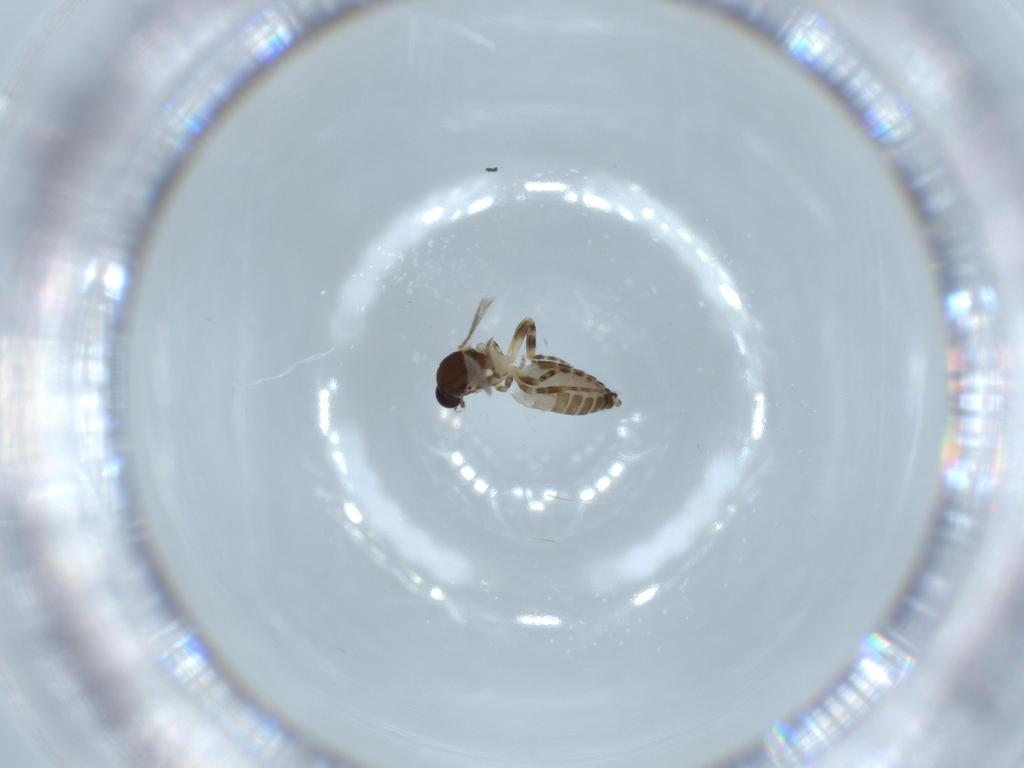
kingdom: Animalia
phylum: Arthropoda
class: Insecta
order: Diptera
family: Ceratopogonidae
